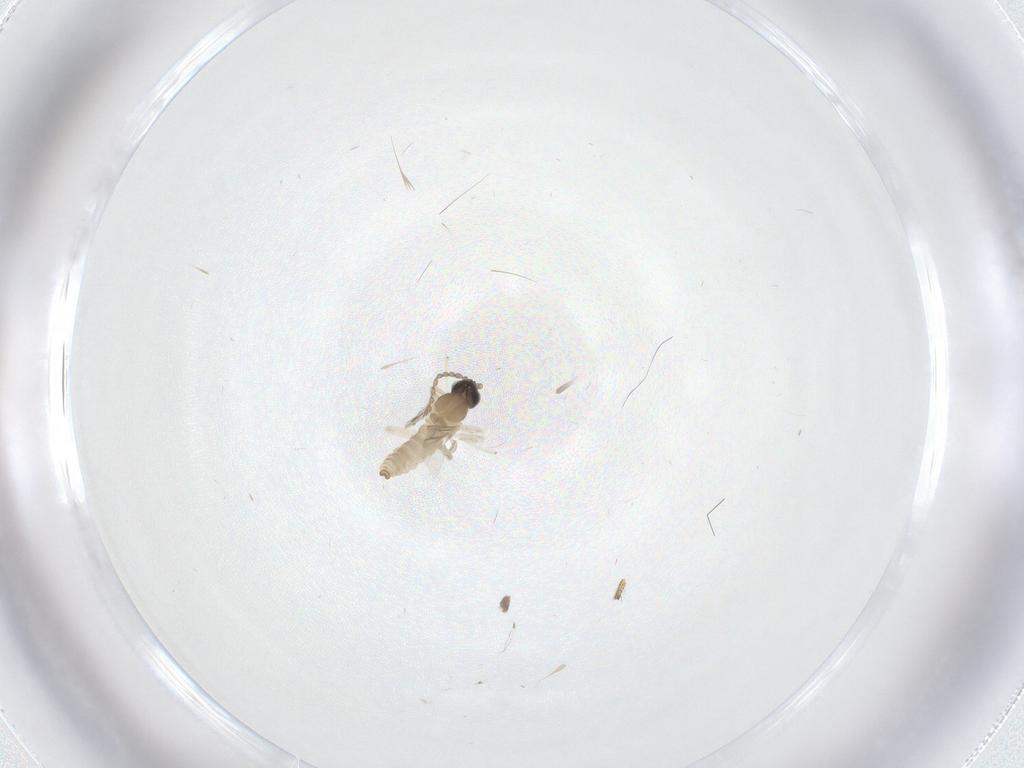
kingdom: Animalia
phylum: Arthropoda
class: Insecta
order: Diptera
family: Cecidomyiidae
